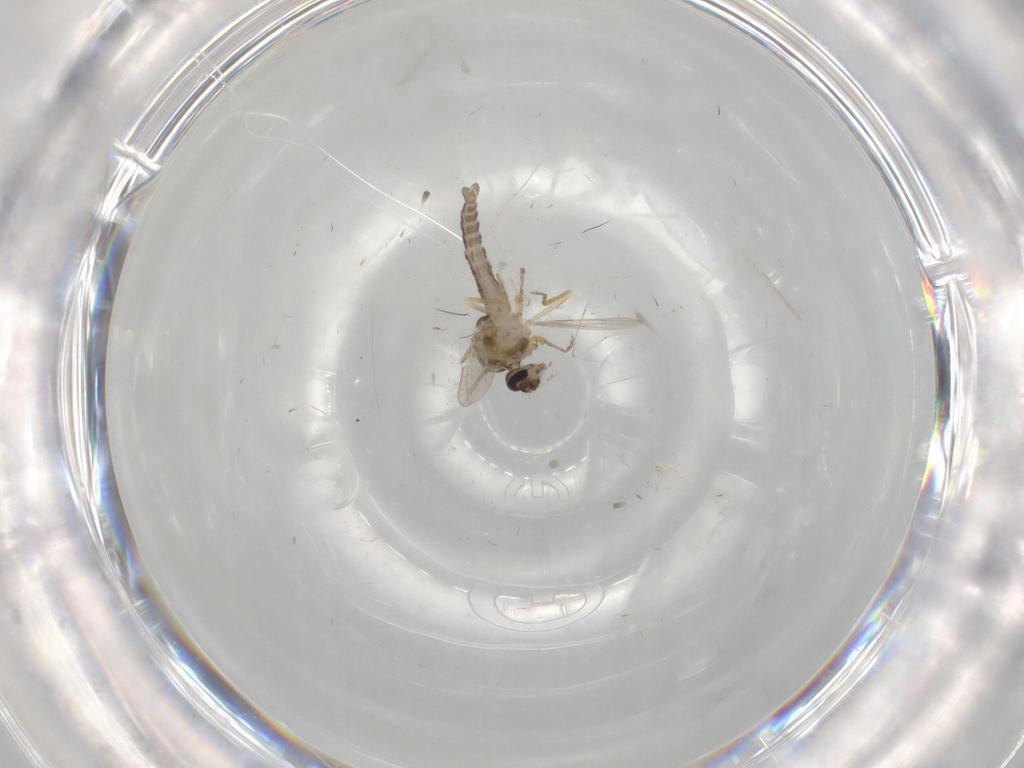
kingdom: Animalia
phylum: Arthropoda
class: Insecta
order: Diptera
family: Ceratopogonidae
